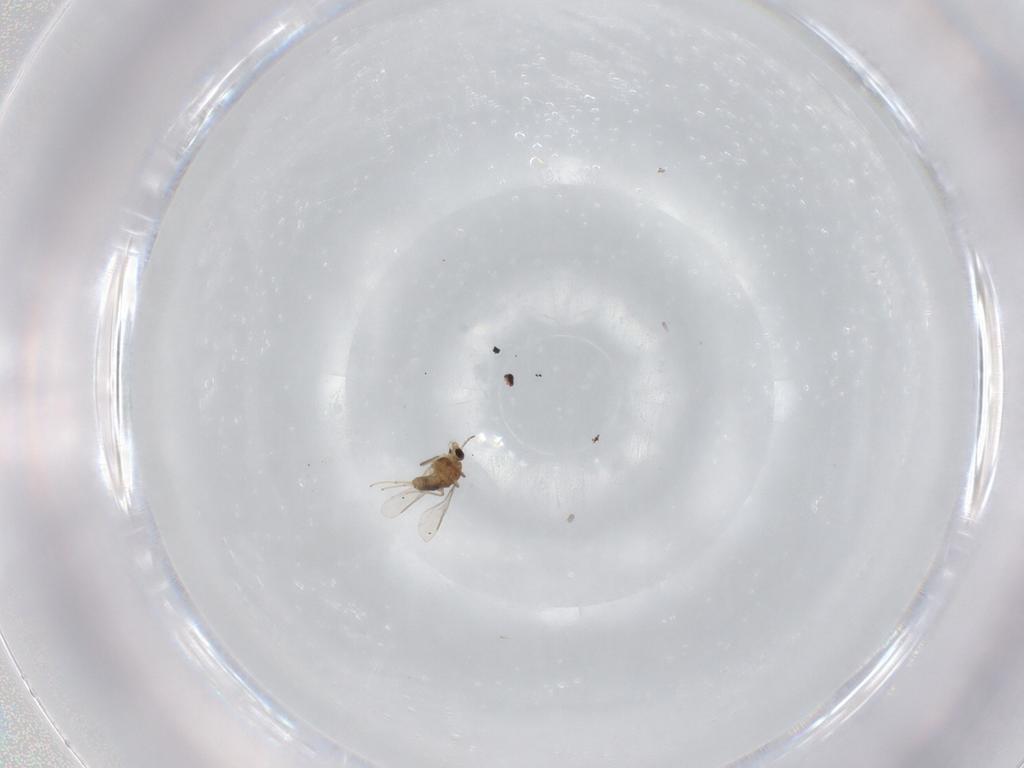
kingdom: Animalia
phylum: Arthropoda
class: Insecta
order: Diptera
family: Chironomidae
